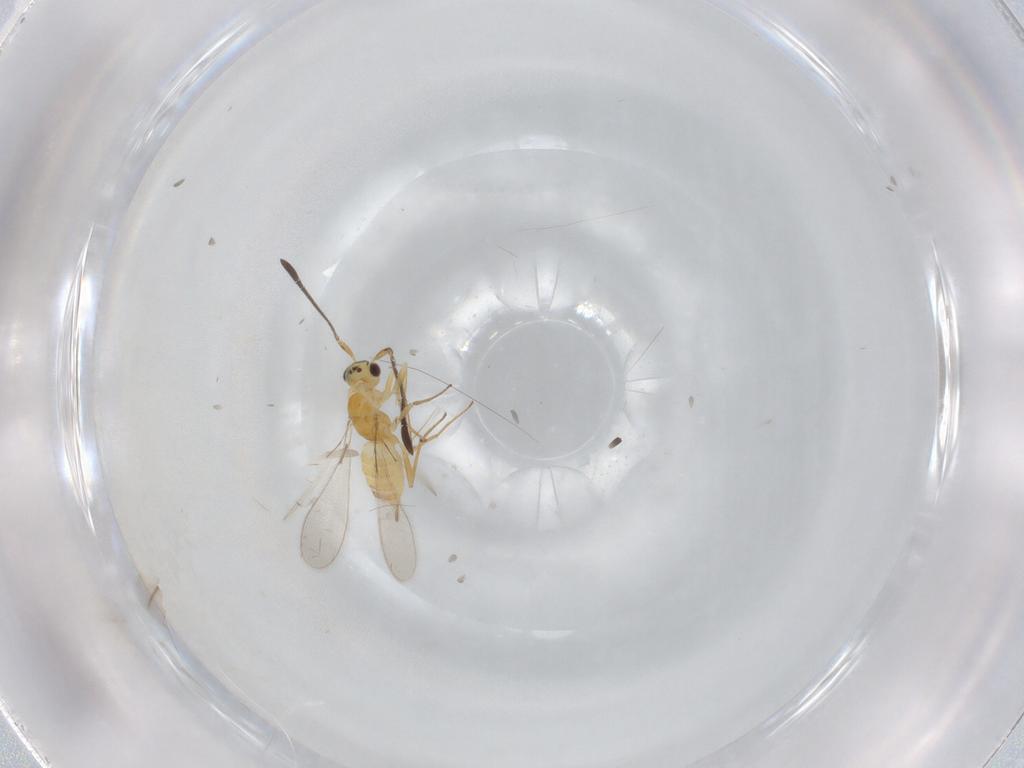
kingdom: Animalia
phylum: Arthropoda
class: Insecta
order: Hymenoptera
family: Mymaridae
